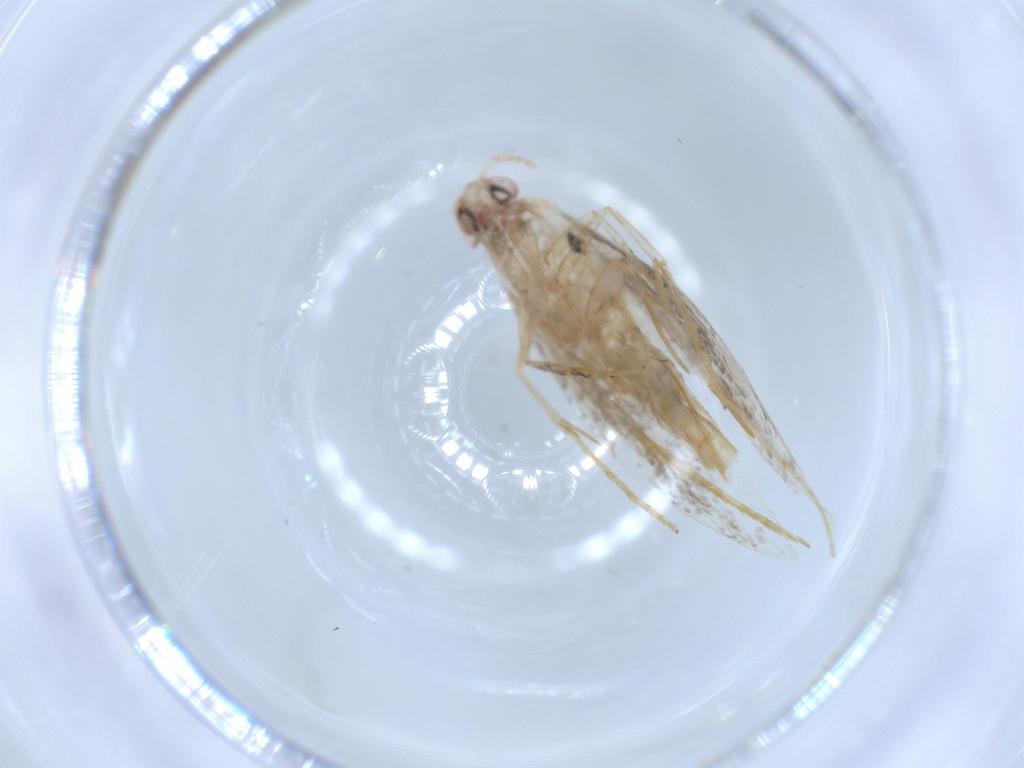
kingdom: Animalia
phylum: Arthropoda
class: Insecta
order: Lepidoptera
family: Tineidae
